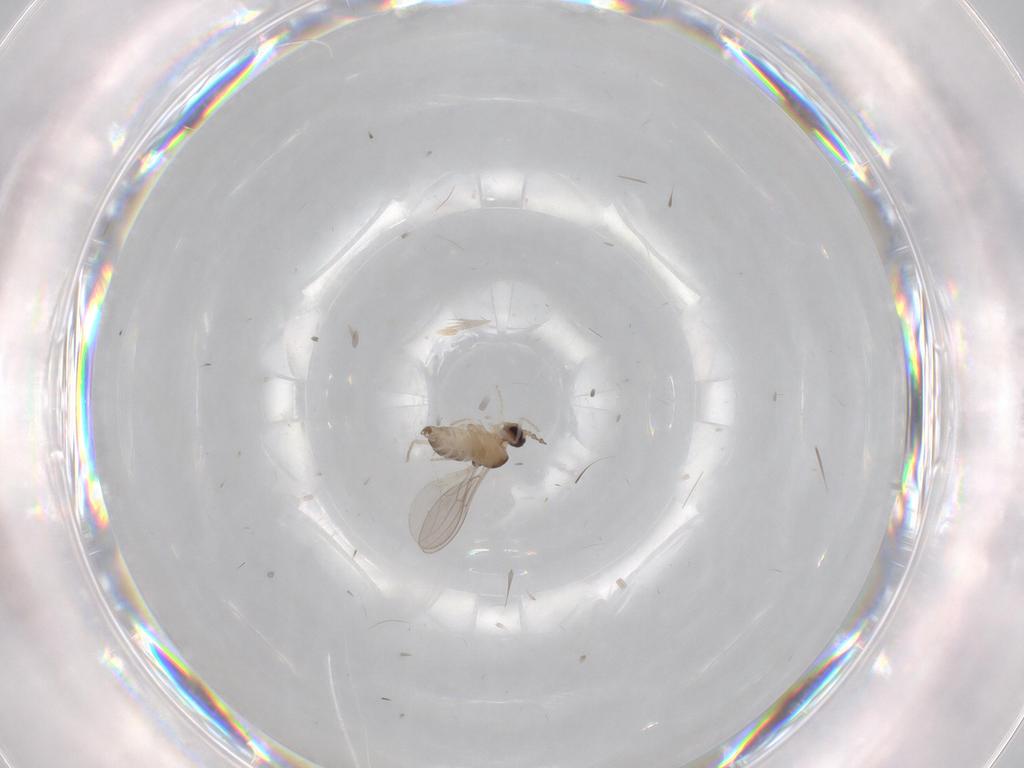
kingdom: Animalia
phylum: Arthropoda
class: Insecta
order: Diptera
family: Cecidomyiidae
